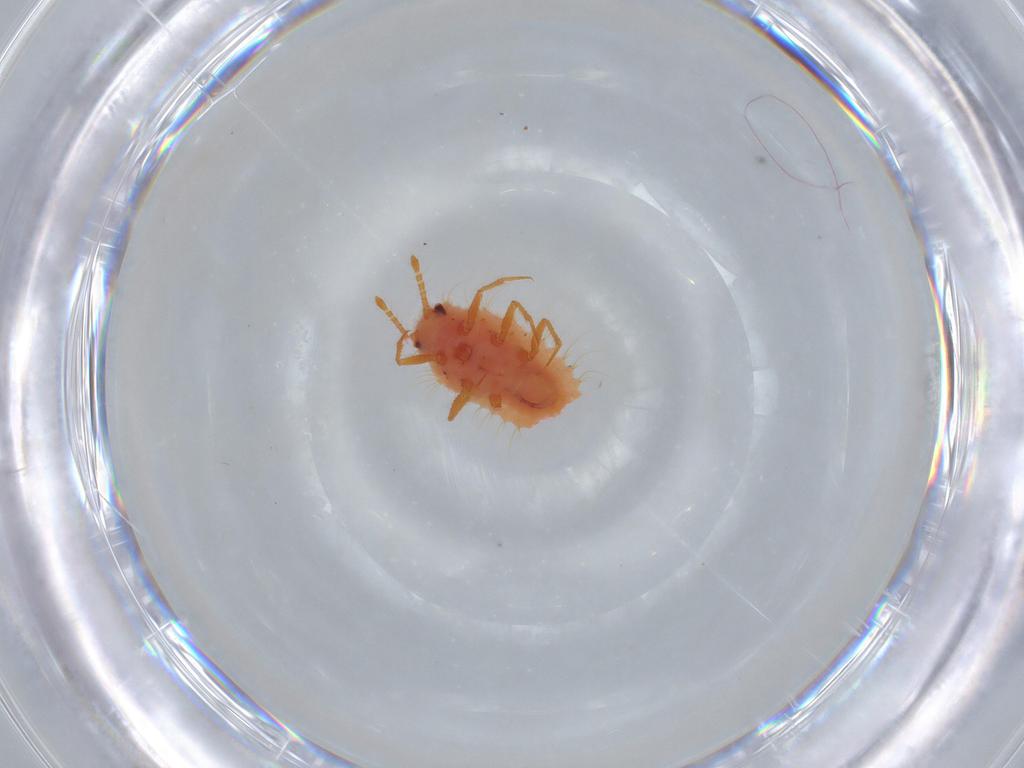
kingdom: Animalia
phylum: Arthropoda
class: Insecta
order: Hemiptera
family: Coccoidea_incertae_sedis
